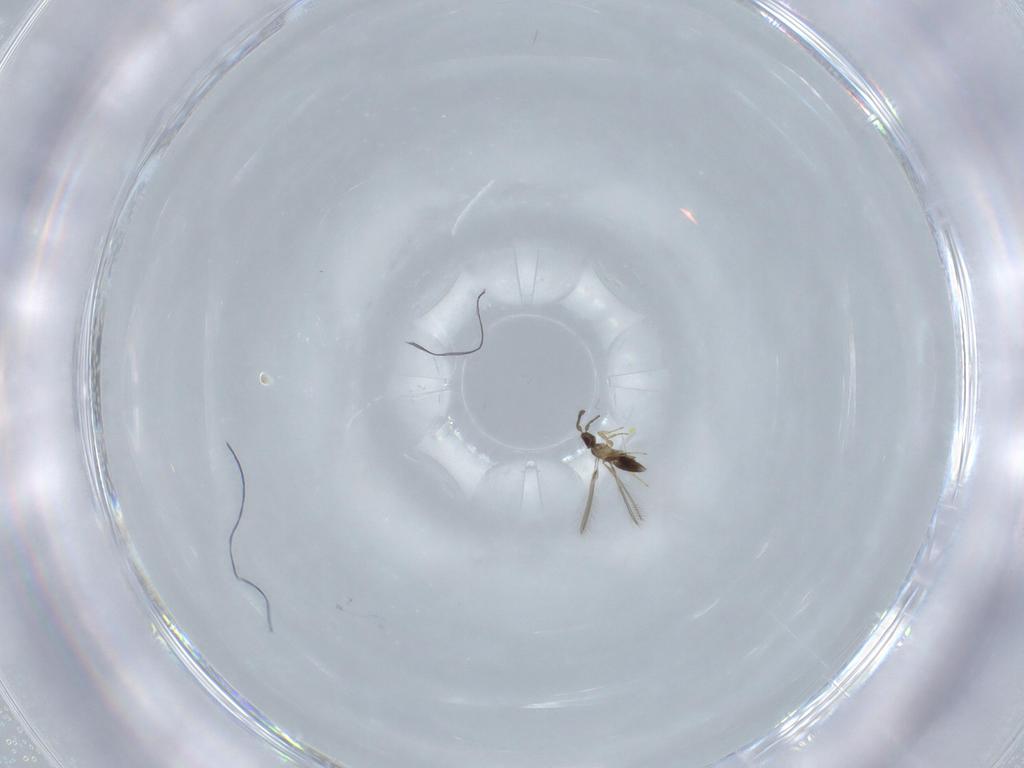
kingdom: Animalia
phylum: Arthropoda
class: Insecta
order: Hymenoptera
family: Mymaridae
